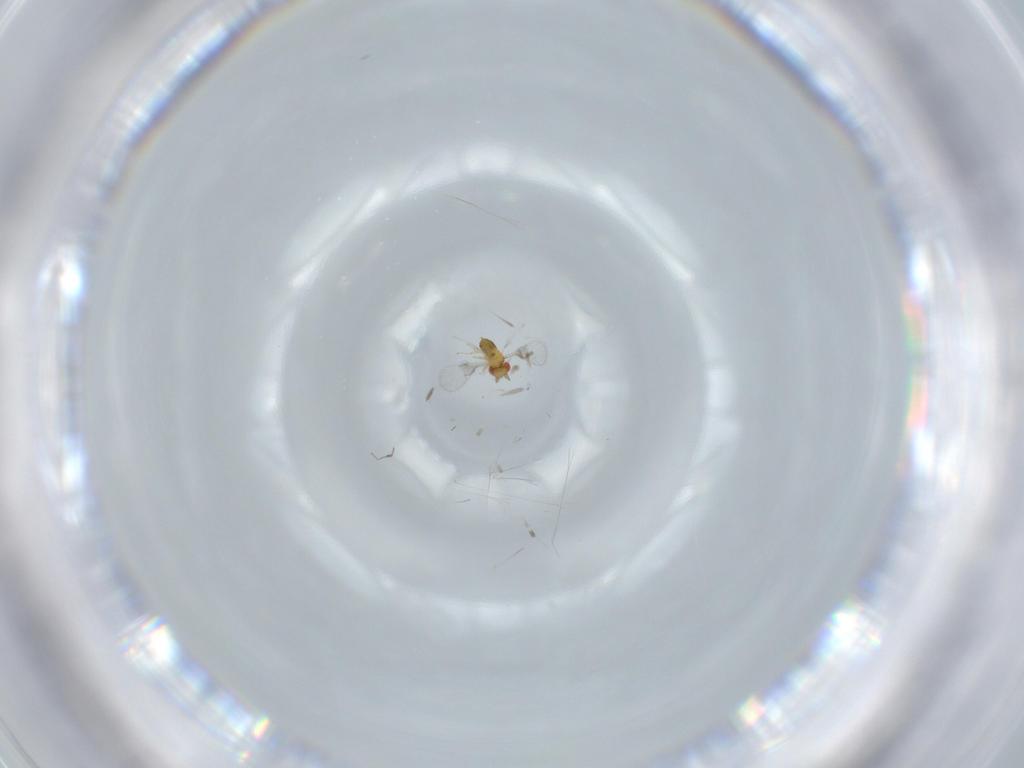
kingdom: Animalia
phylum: Arthropoda
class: Insecta
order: Hymenoptera
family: Trichogrammatidae
